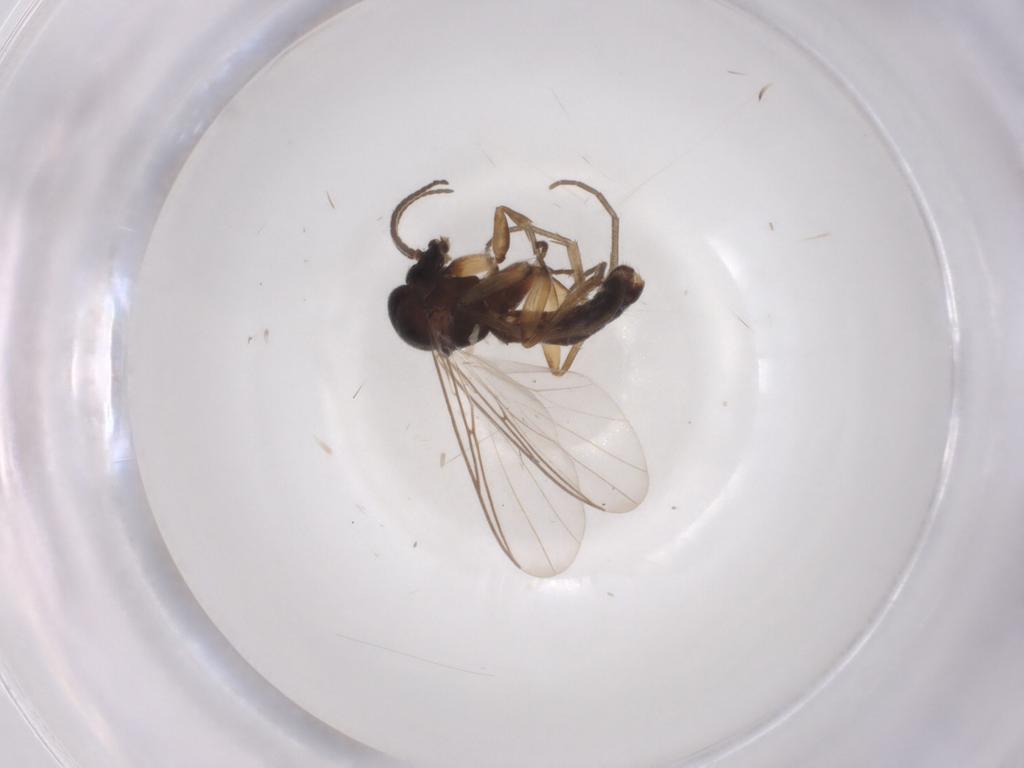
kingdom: Animalia
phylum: Arthropoda
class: Insecta
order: Diptera
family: Mycetophilidae
